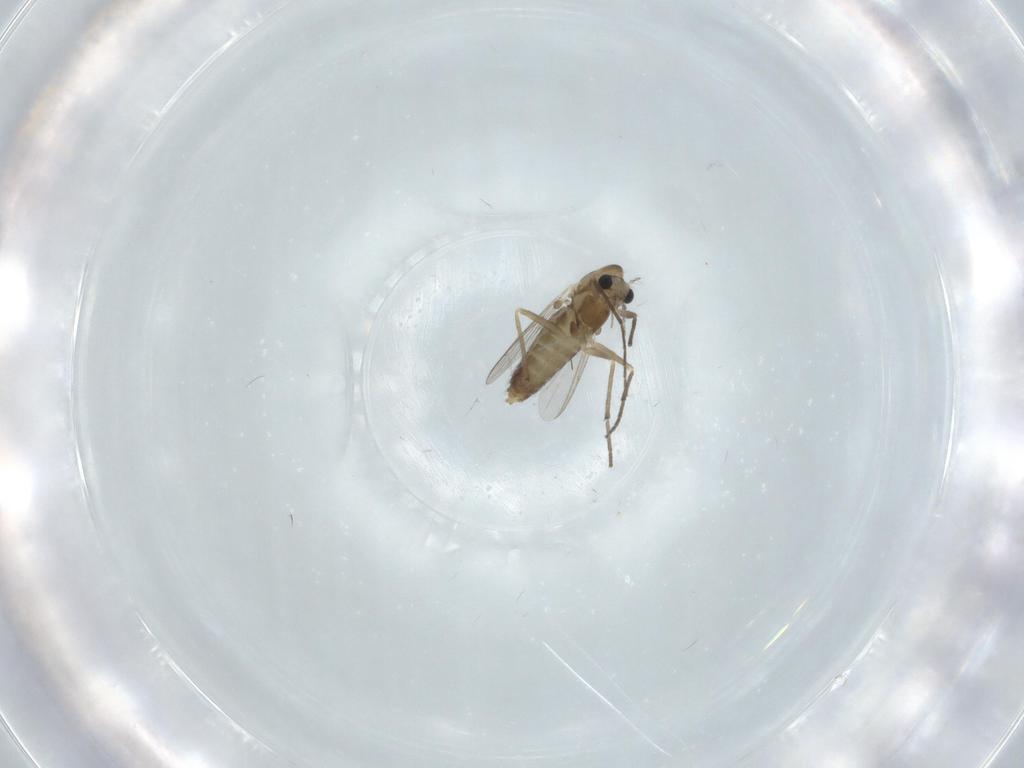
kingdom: Animalia
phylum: Arthropoda
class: Insecta
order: Diptera
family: Chironomidae
